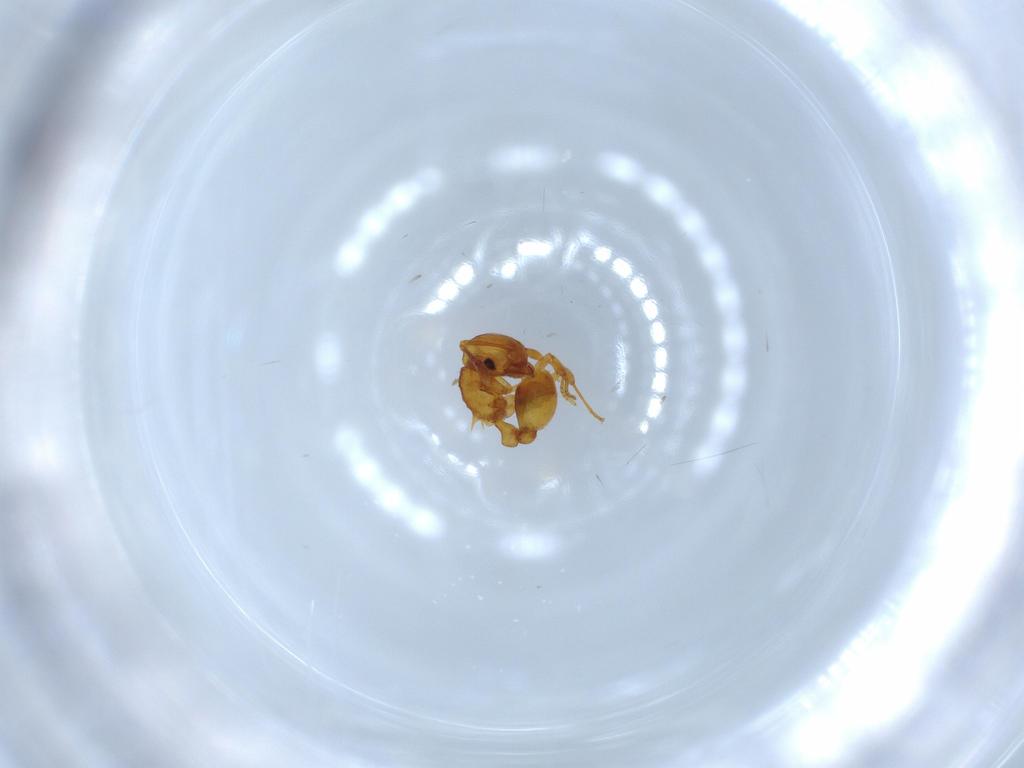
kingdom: Animalia
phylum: Arthropoda
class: Insecta
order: Hymenoptera
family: Formicidae
